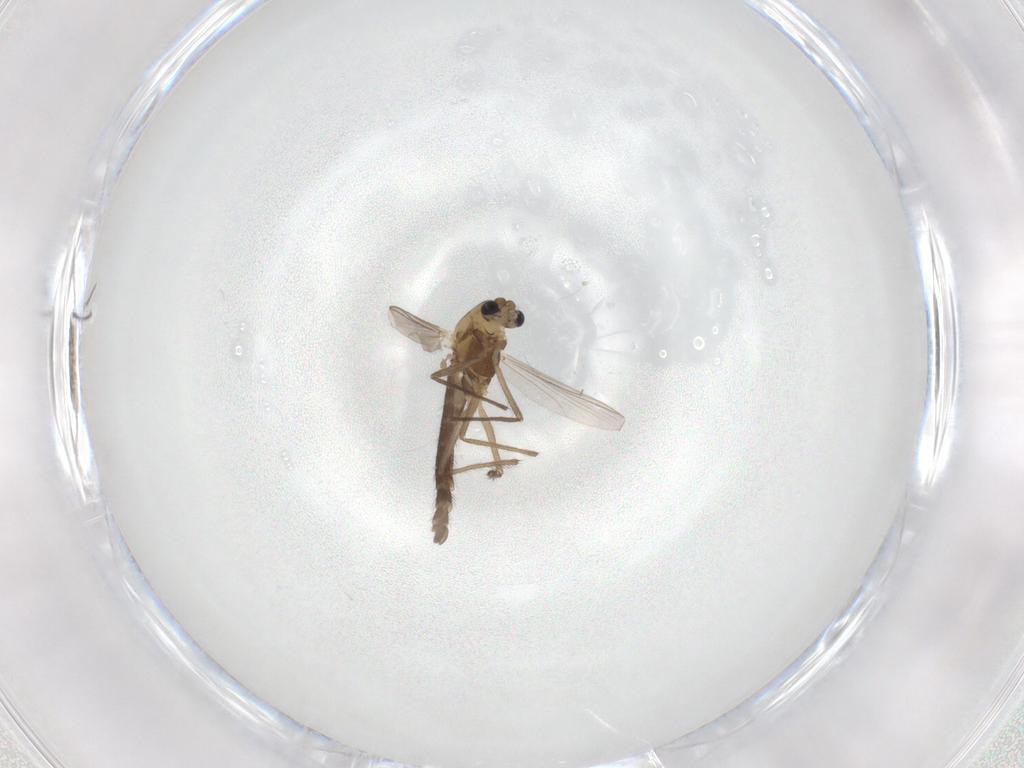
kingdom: Animalia
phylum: Arthropoda
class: Insecta
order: Diptera
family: Chironomidae
